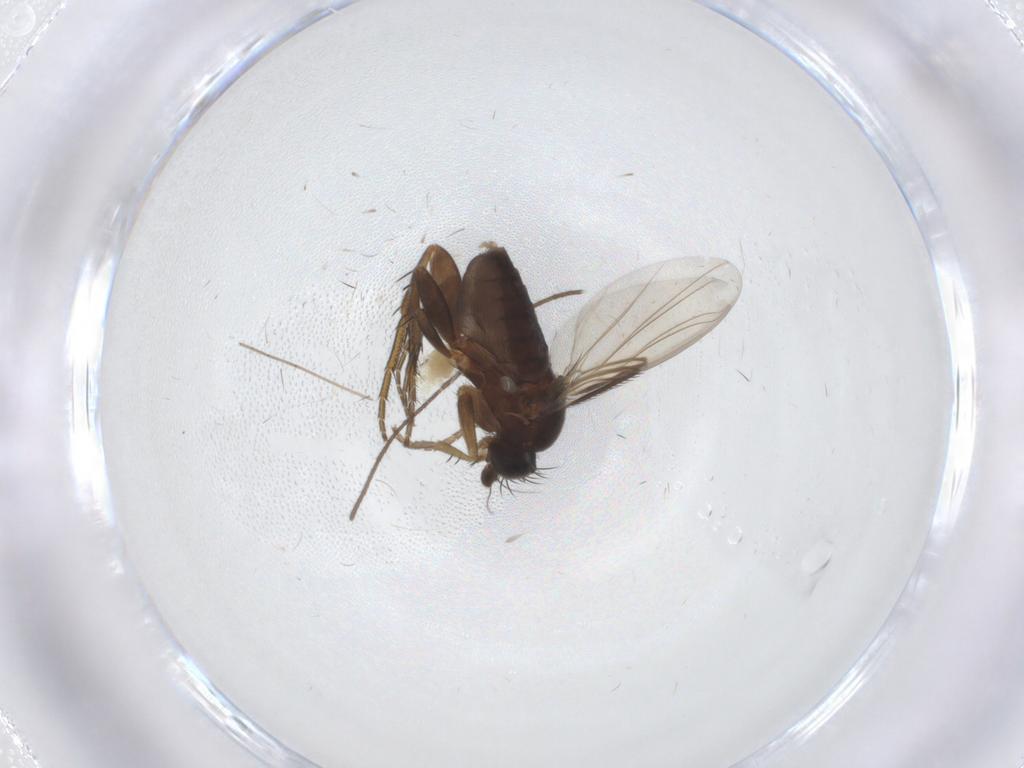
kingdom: Animalia
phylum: Arthropoda
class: Insecta
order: Diptera
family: Phoridae
